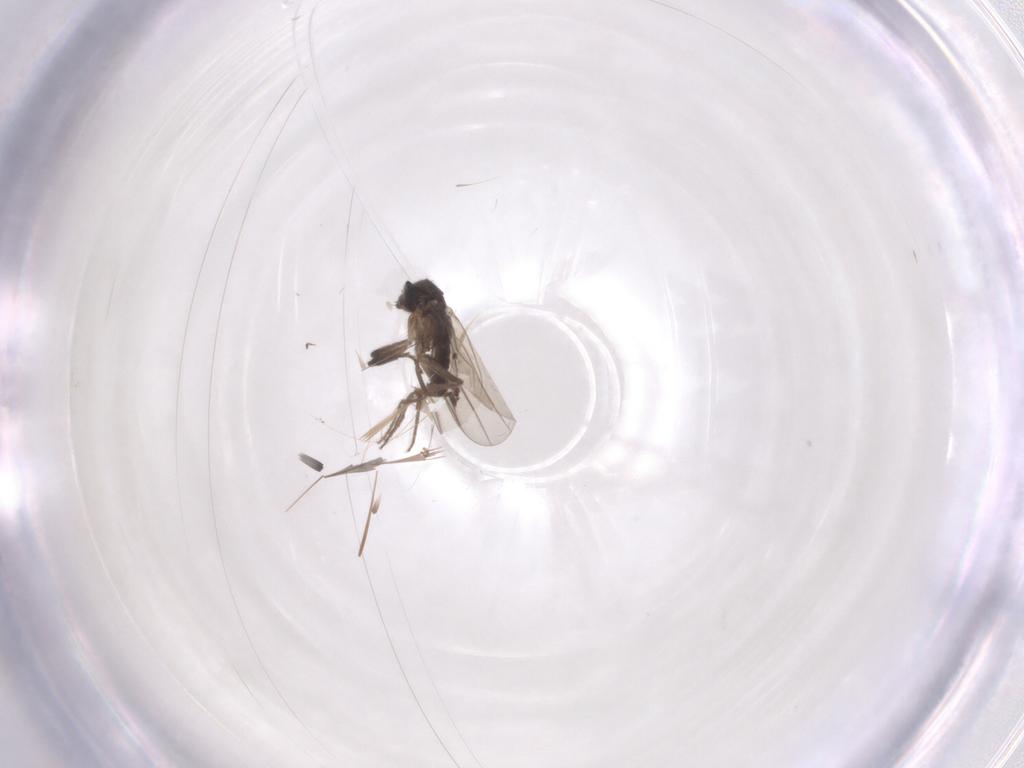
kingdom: Animalia
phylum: Arthropoda
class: Insecta
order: Diptera
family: Phoridae
